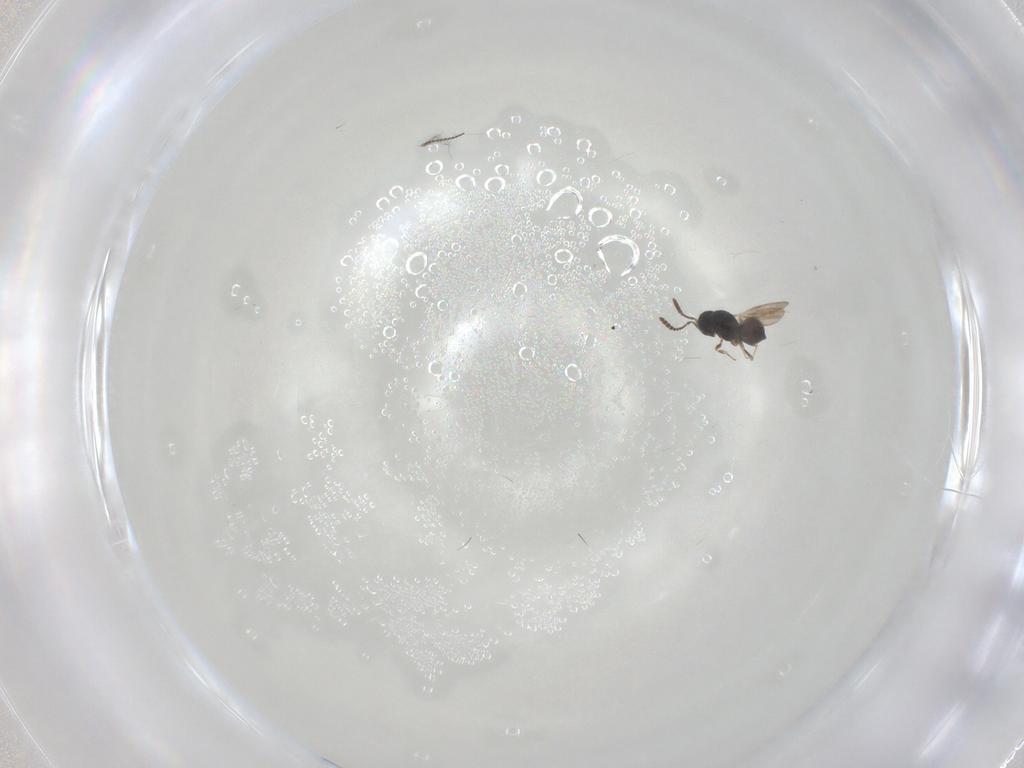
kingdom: Animalia
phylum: Arthropoda
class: Insecta
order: Hymenoptera
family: Scelionidae
